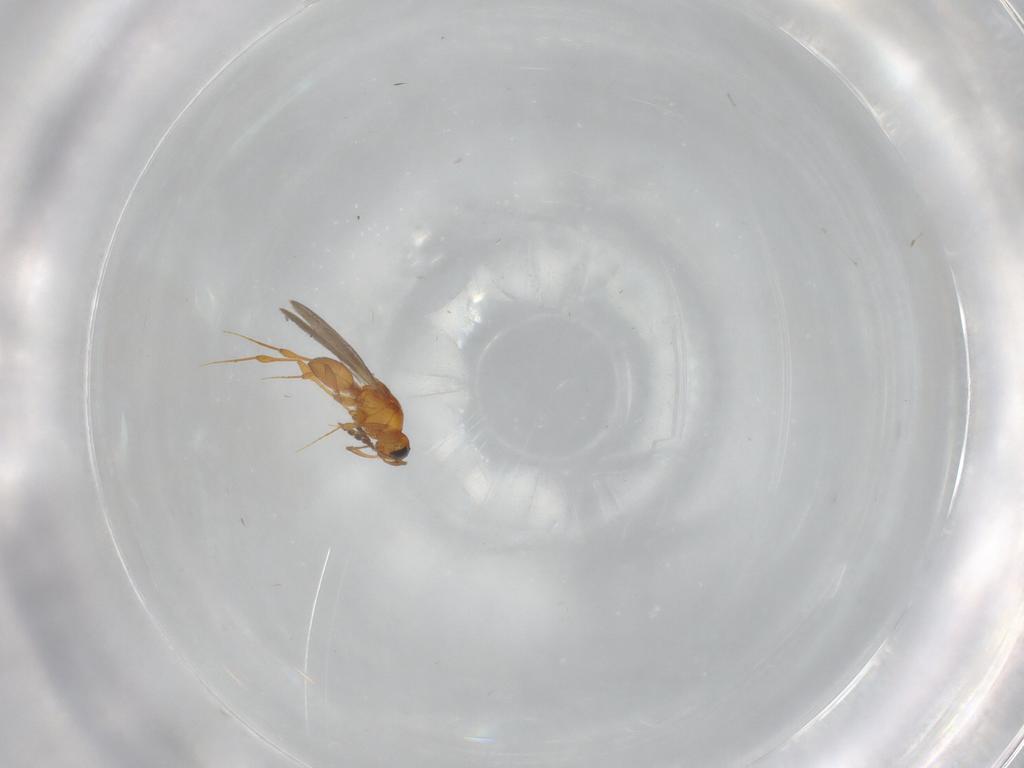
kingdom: Animalia
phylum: Arthropoda
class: Insecta
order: Hymenoptera
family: Platygastridae
